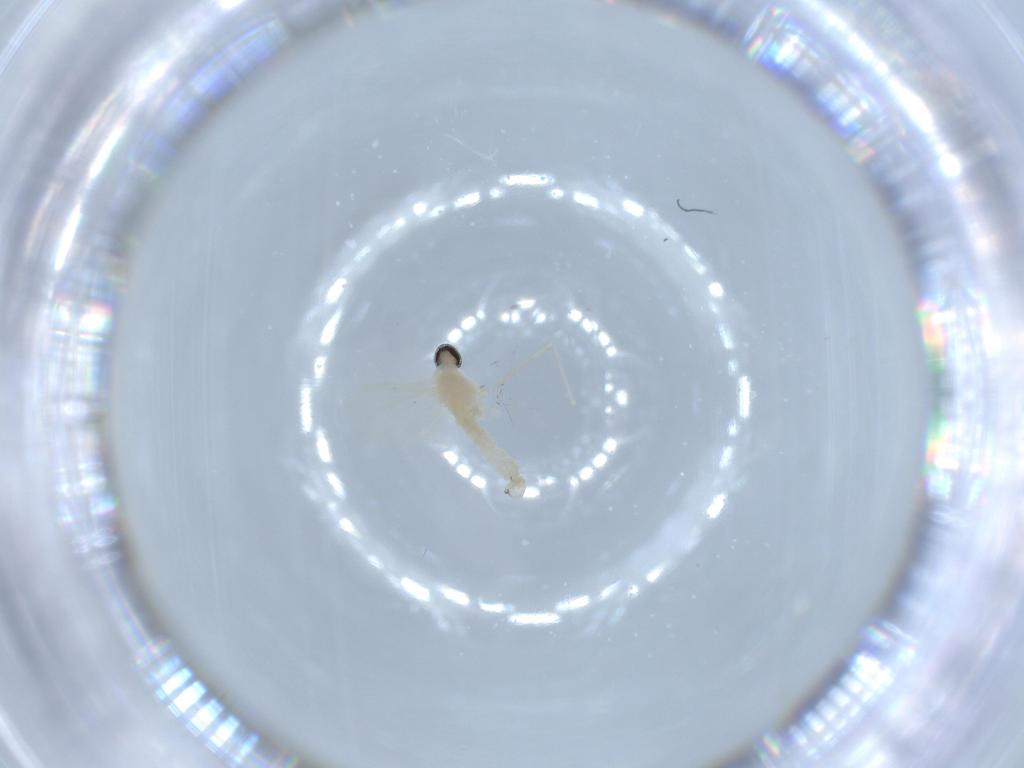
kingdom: Animalia
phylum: Arthropoda
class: Insecta
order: Diptera
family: Cecidomyiidae
